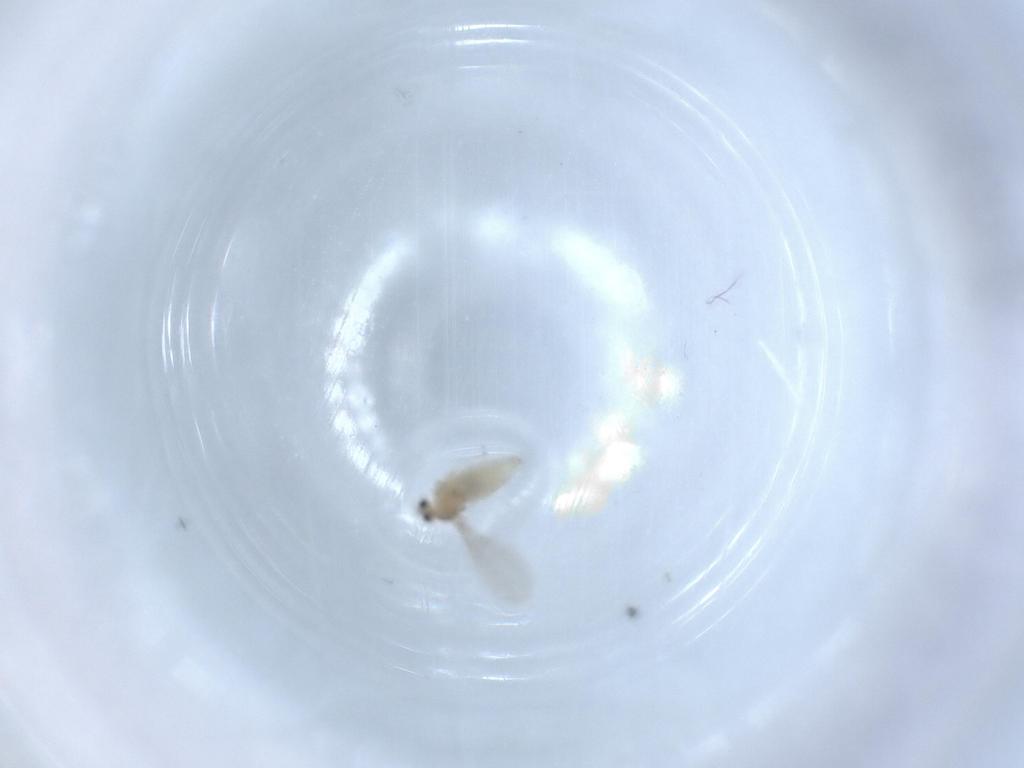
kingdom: Animalia
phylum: Arthropoda
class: Insecta
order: Diptera
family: Cecidomyiidae
